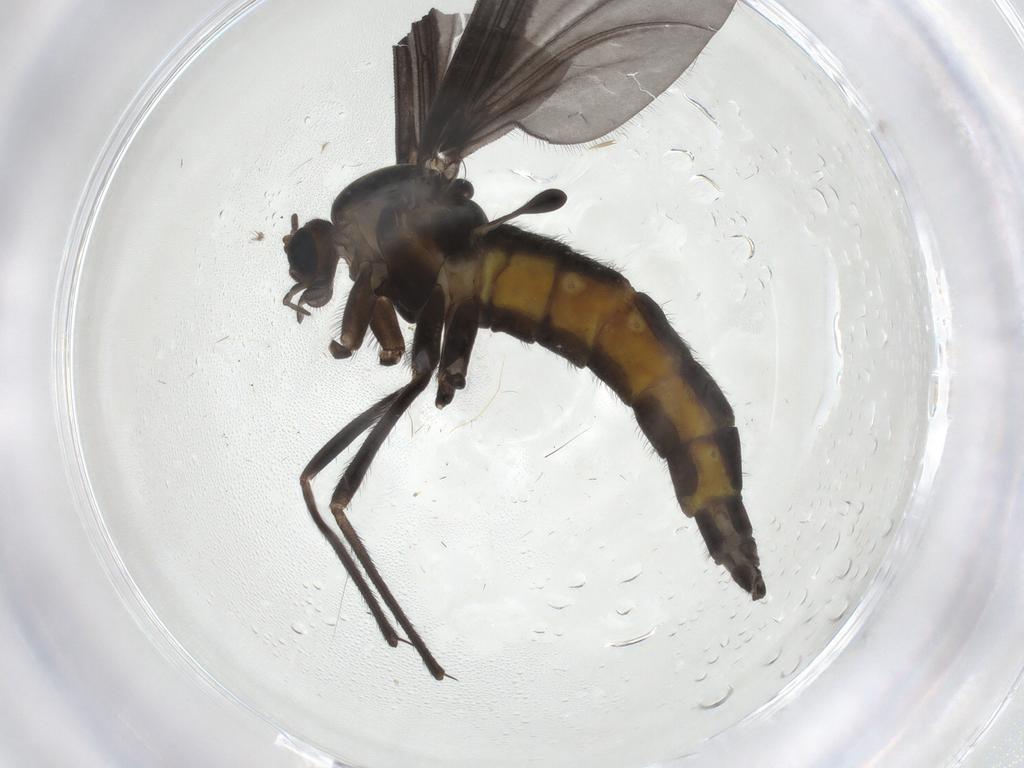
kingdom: Animalia
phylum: Arthropoda
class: Insecta
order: Diptera
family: Sciaridae
